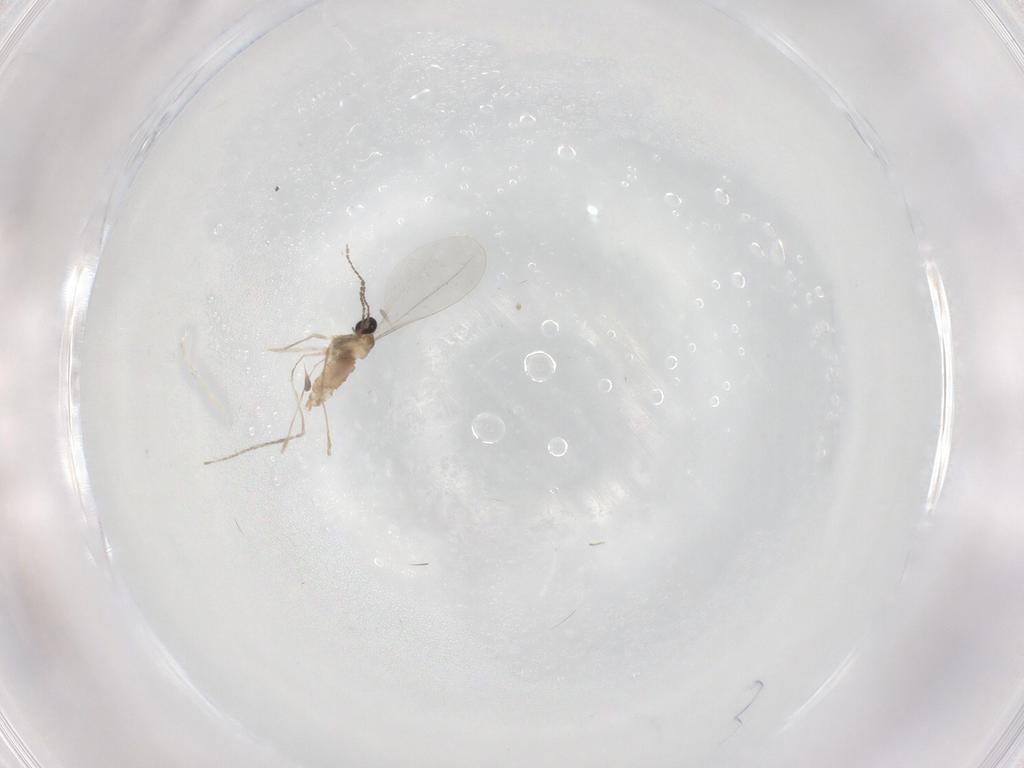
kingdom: Animalia
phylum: Arthropoda
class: Insecta
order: Diptera
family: Cecidomyiidae
